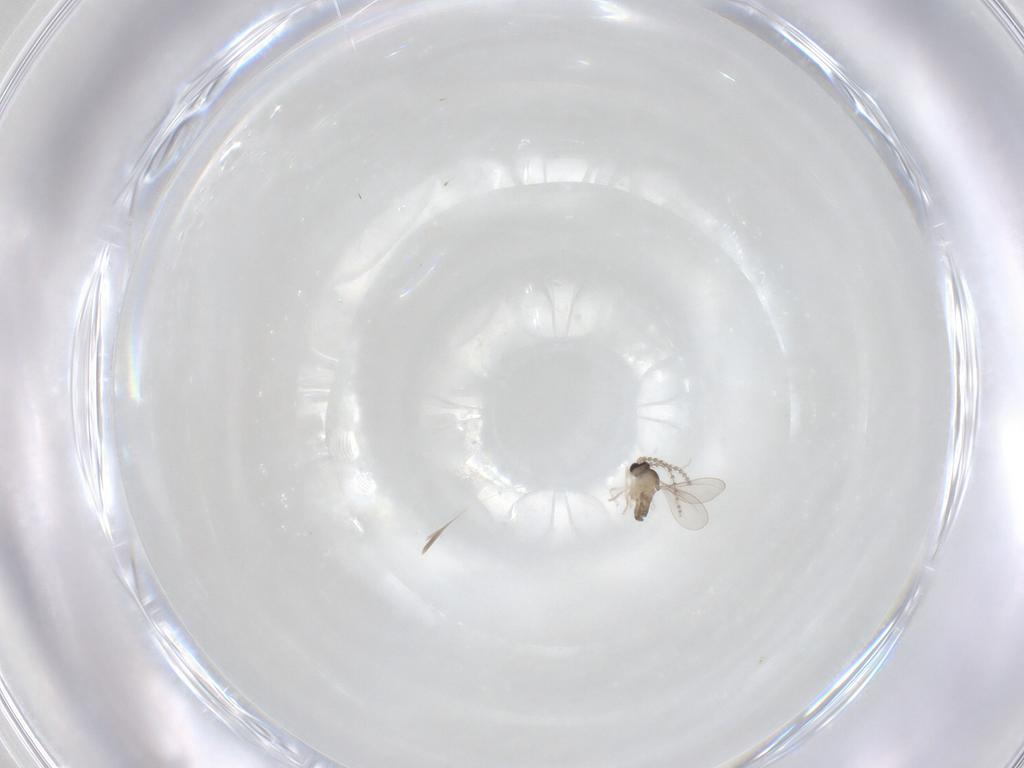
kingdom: Animalia
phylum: Arthropoda
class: Insecta
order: Diptera
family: Cecidomyiidae
